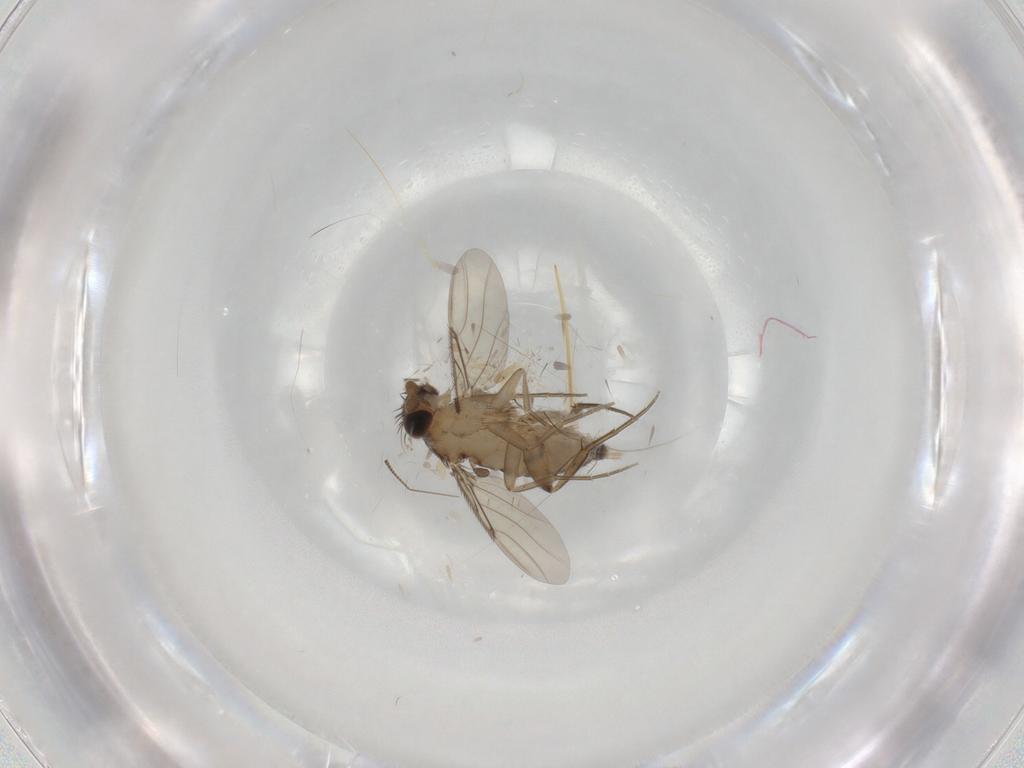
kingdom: Animalia
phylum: Arthropoda
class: Insecta
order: Diptera
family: Phoridae
